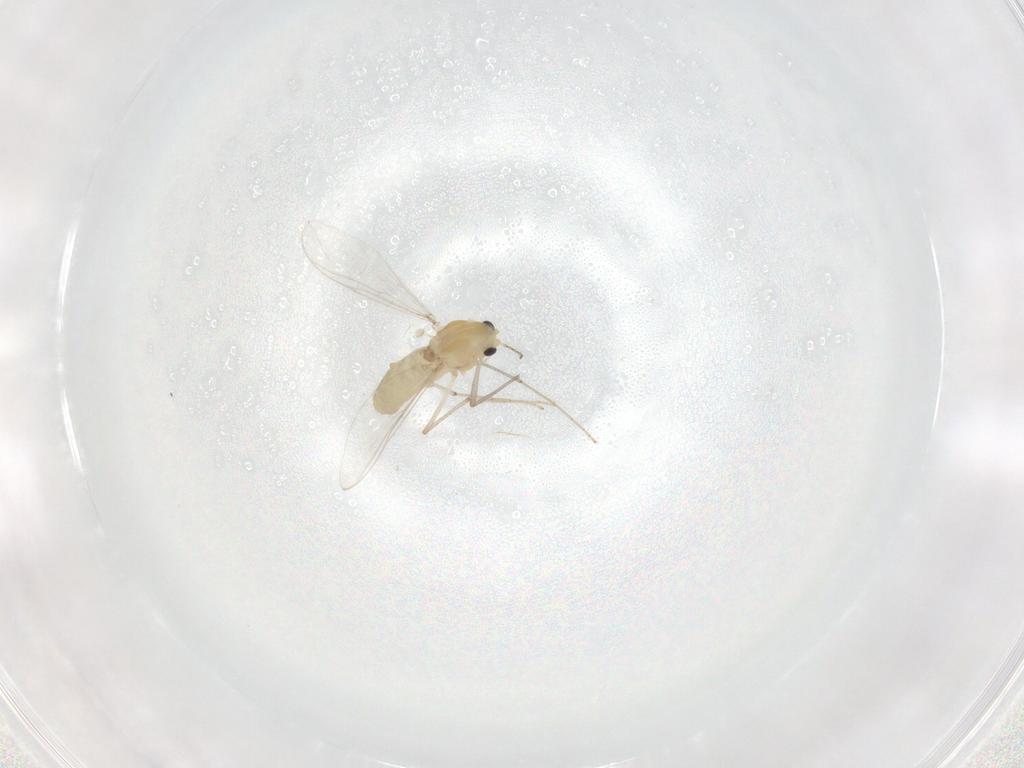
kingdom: Animalia
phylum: Arthropoda
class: Insecta
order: Diptera
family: Chironomidae
